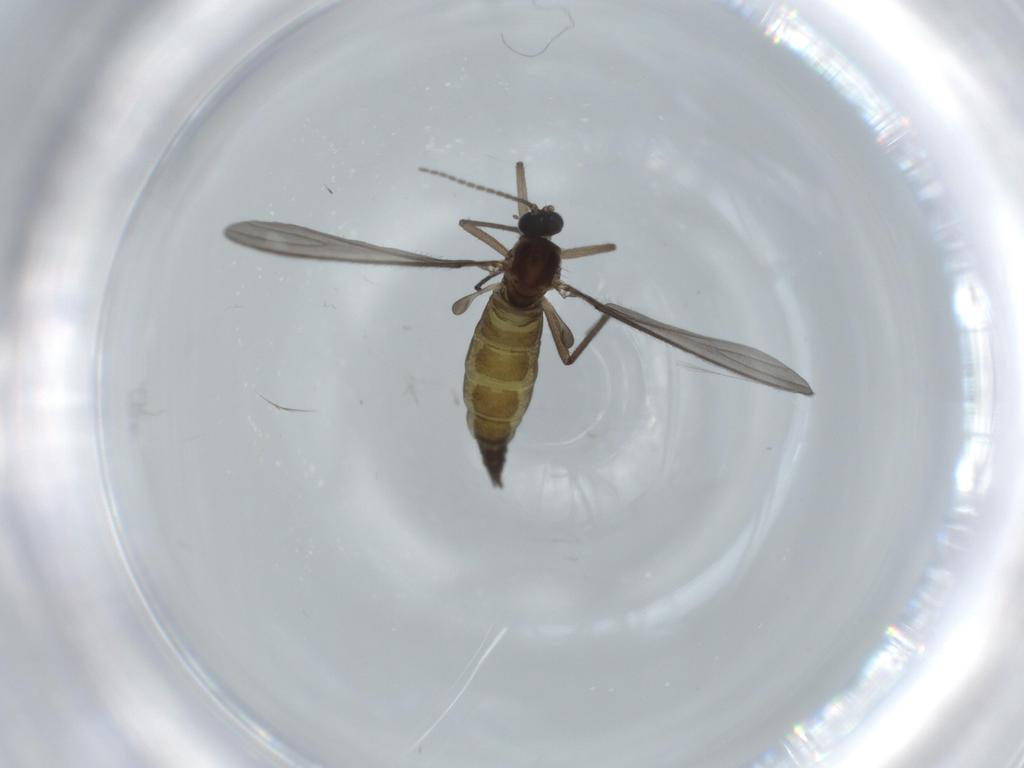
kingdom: Animalia
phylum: Arthropoda
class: Insecta
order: Diptera
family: Sciaridae
